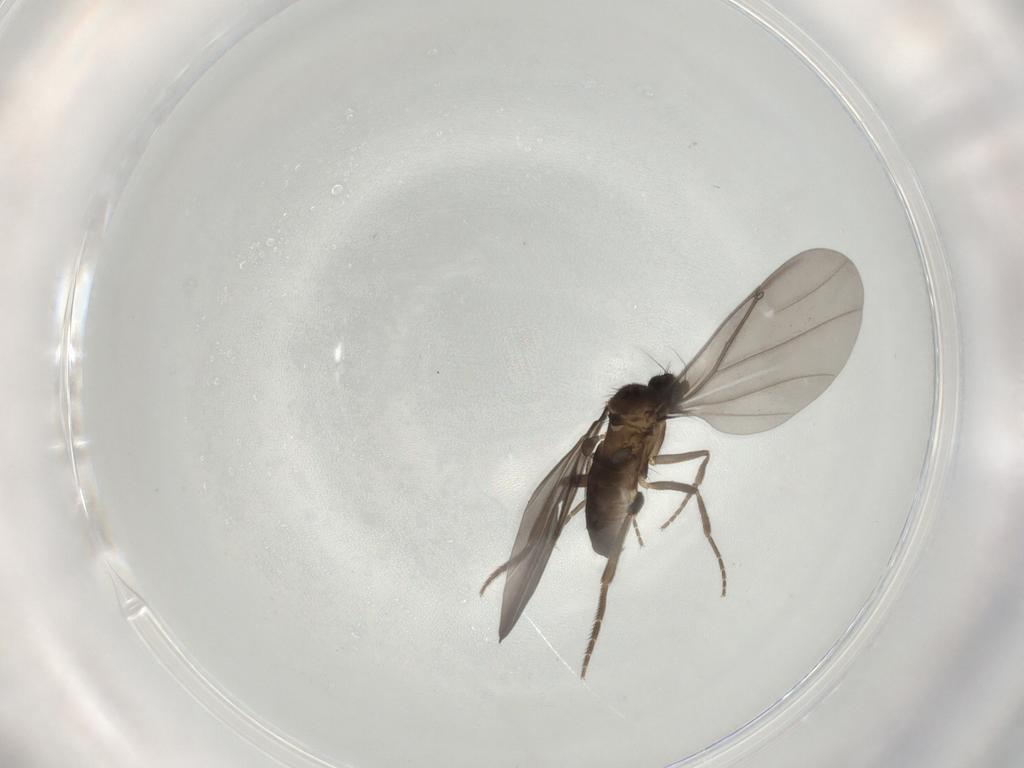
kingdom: Animalia
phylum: Arthropoda
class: Insecta
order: Diptera
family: Phoridae
